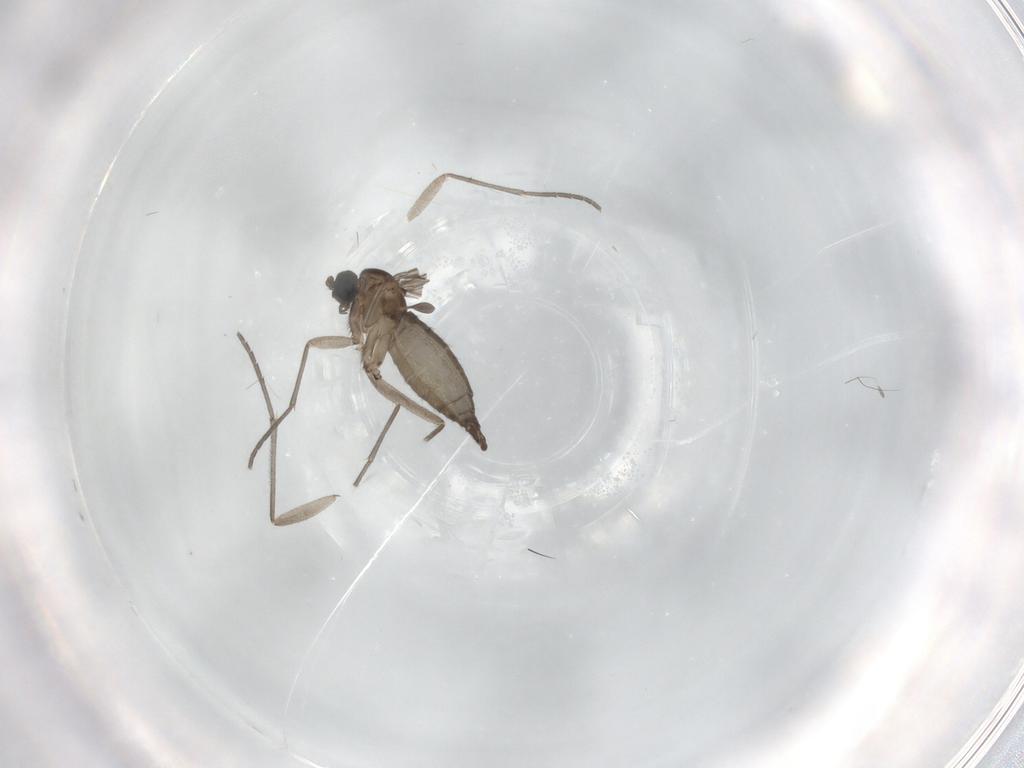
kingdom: Animalia
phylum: Arthropoda
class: Insecta
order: Diptera
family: Sciaridae
